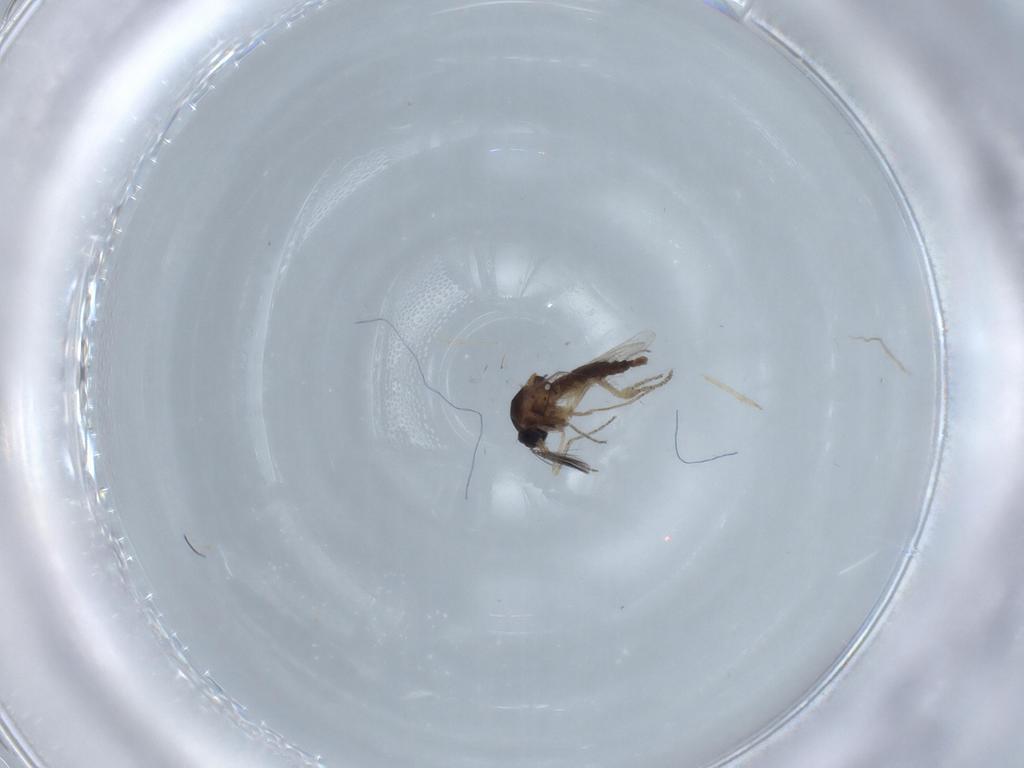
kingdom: Animalia
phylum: Arthropoda
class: Insecta
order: Diptera
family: Ceratopogonidae
